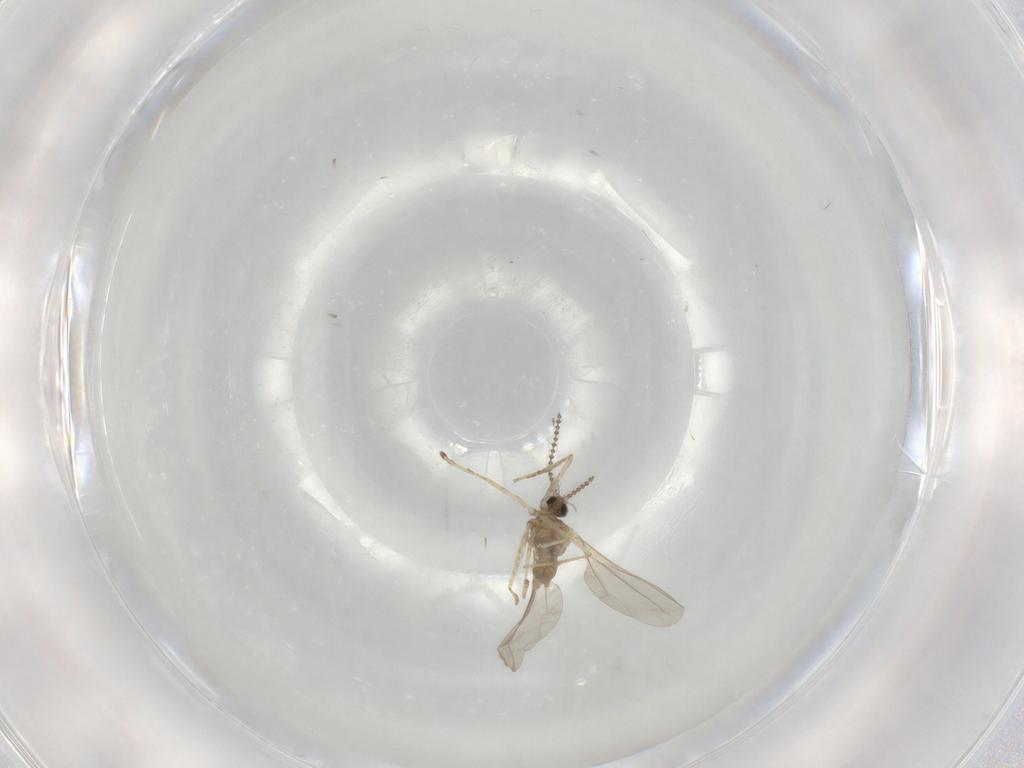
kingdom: Animalia
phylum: Arthropoda
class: Insecta
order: Diptera
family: Cecidomyiidae
